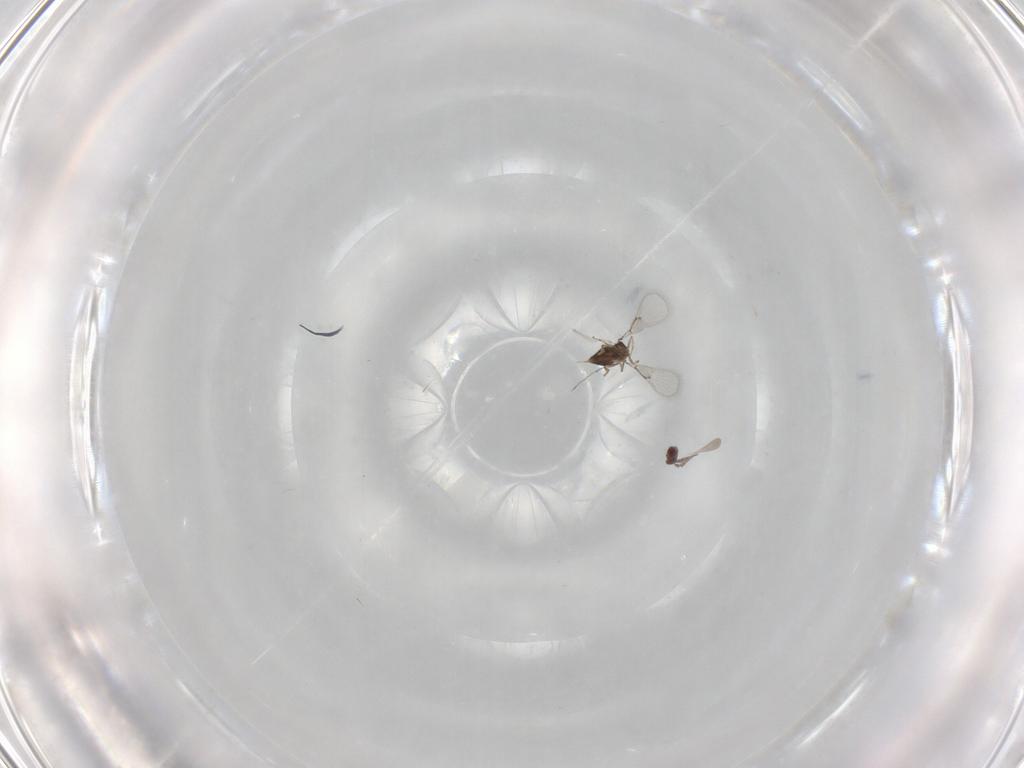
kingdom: Animalia
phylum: Arthropoda
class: Insecta
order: Hymenoptera
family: Trichogrammatidae
